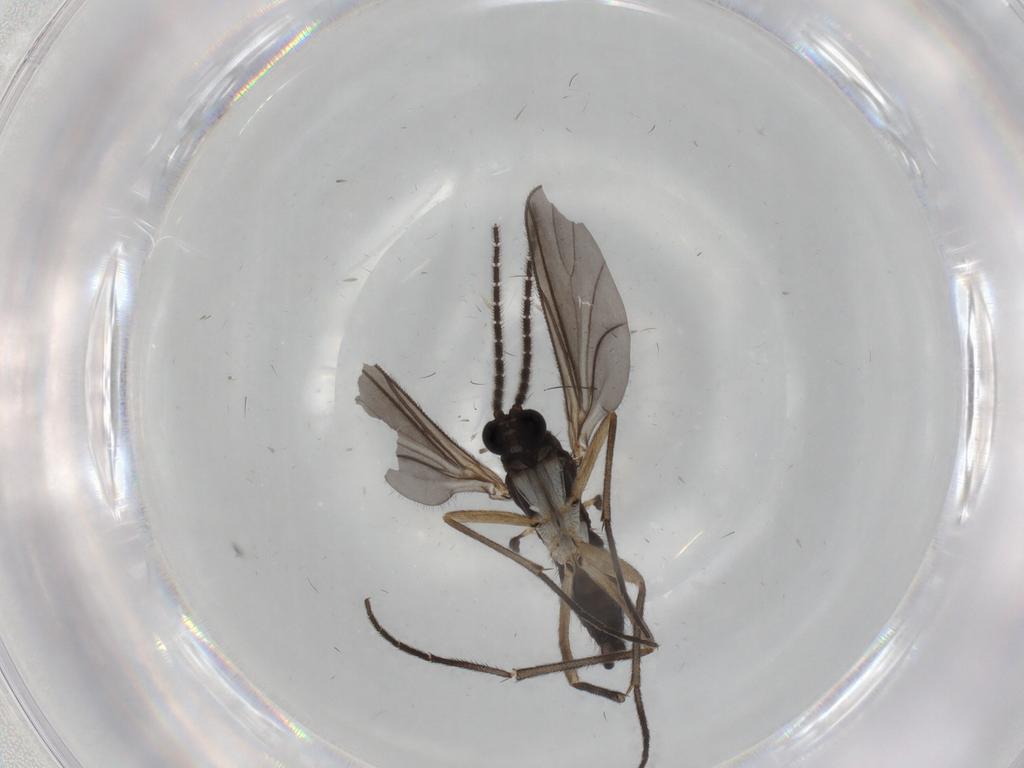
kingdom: Animalia
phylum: Arthropoda
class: Insecta
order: Diptera
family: Sciaridae
